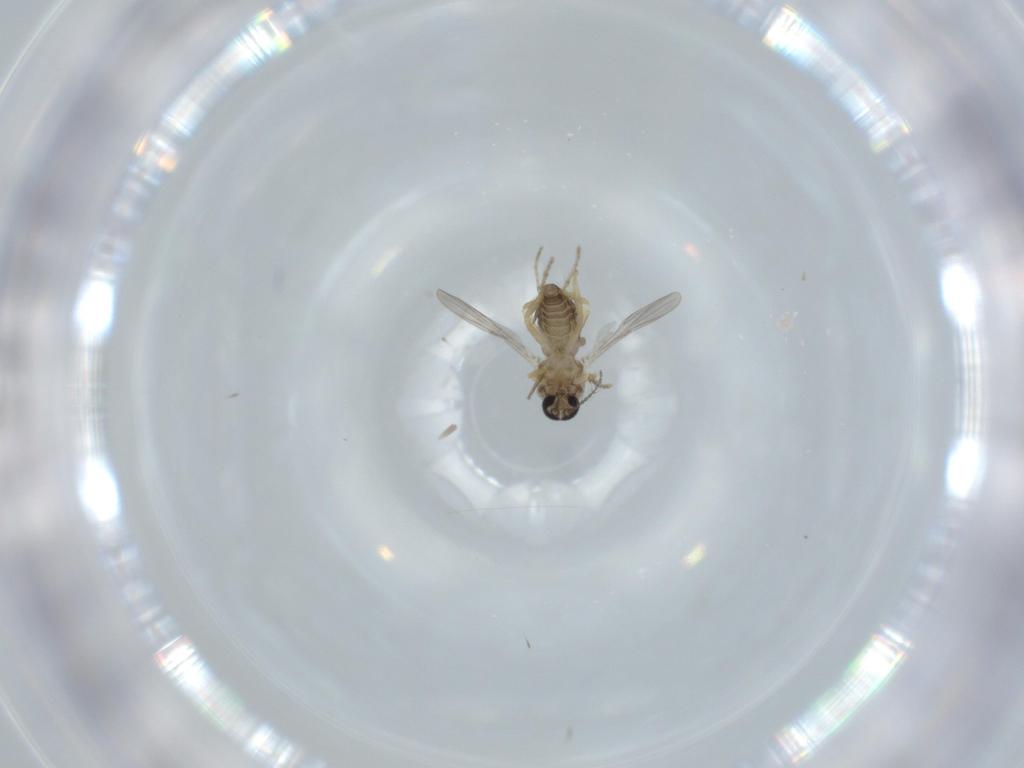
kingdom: Animalia
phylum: Arthropoda
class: Insecta
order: Diptera
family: Ceratopogonidae
